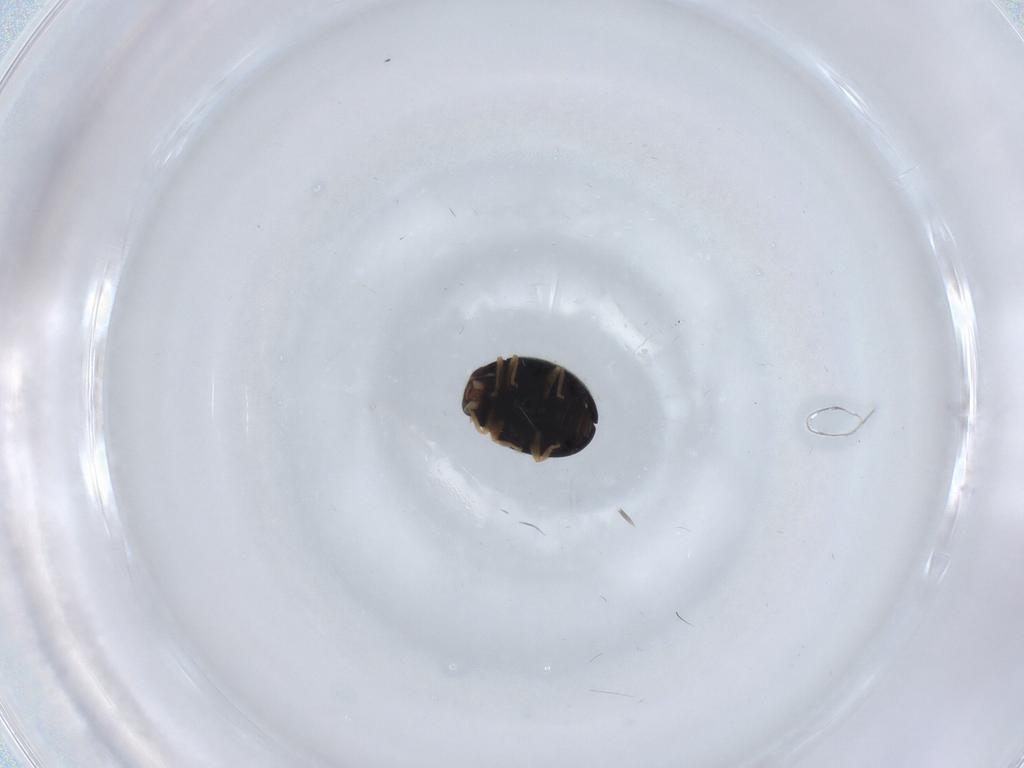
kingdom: Animalia
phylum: Arthropoda
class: Insecta
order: Coleoptera
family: Coccinellidae
